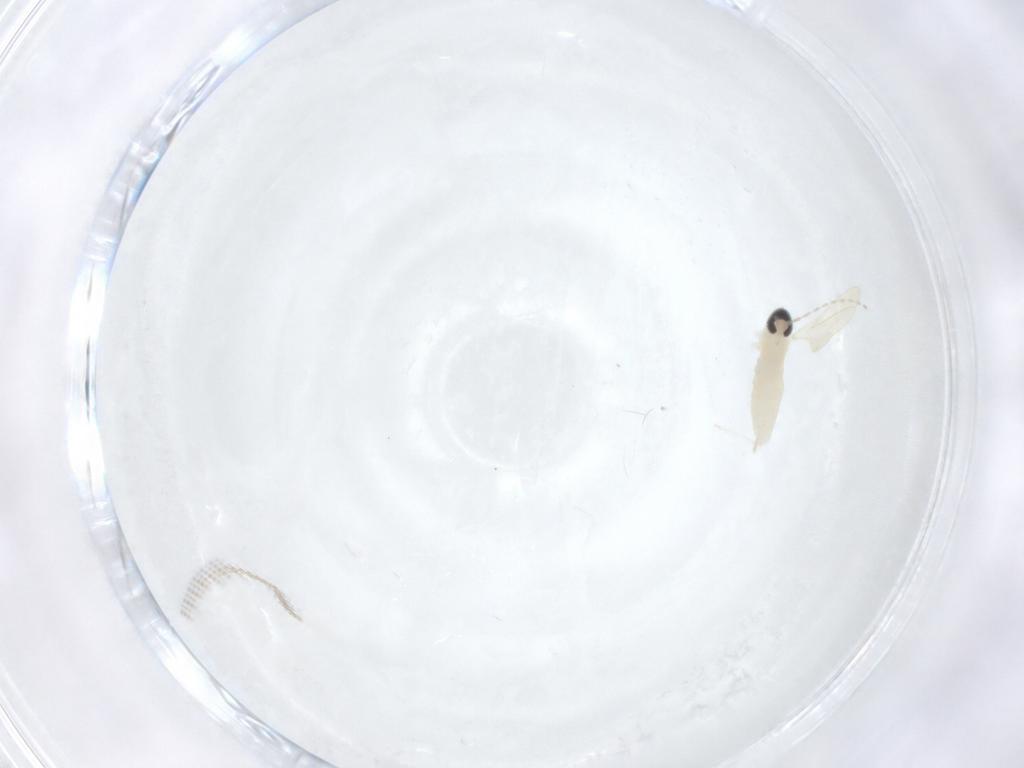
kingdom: Animalia
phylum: Arthropoda
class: Insecta
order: Diptera
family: Cecidomyiidae
